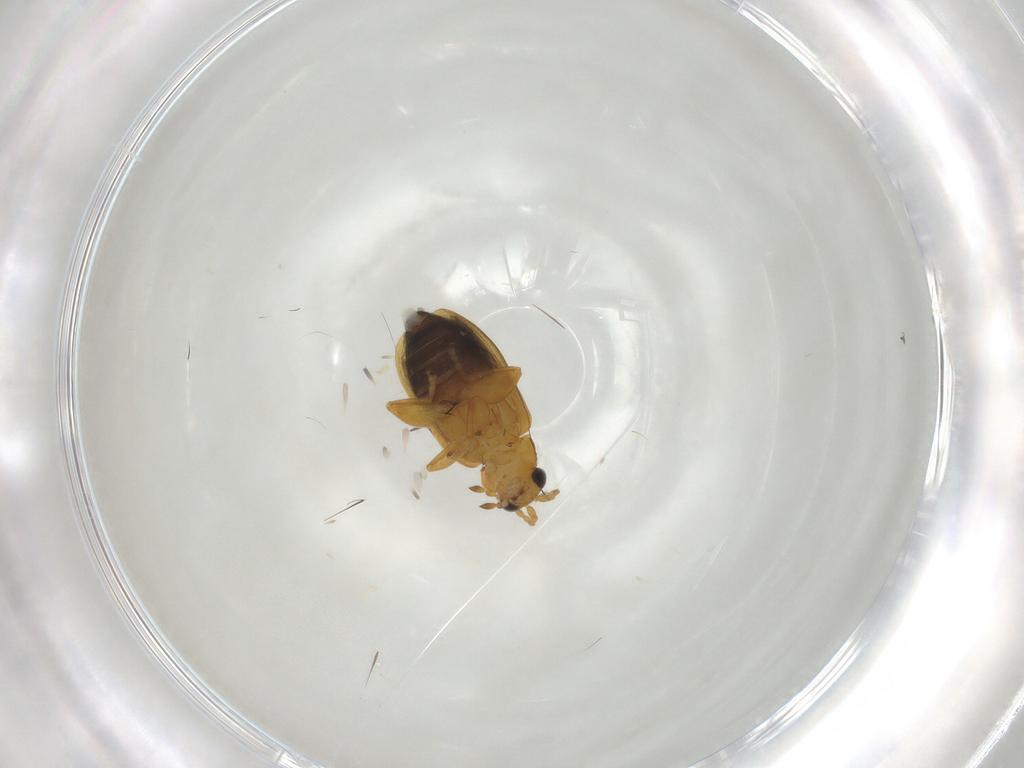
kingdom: Animalia
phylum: Arthropoda
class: Insecta
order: Coleoptera
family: Chrysomelidae
